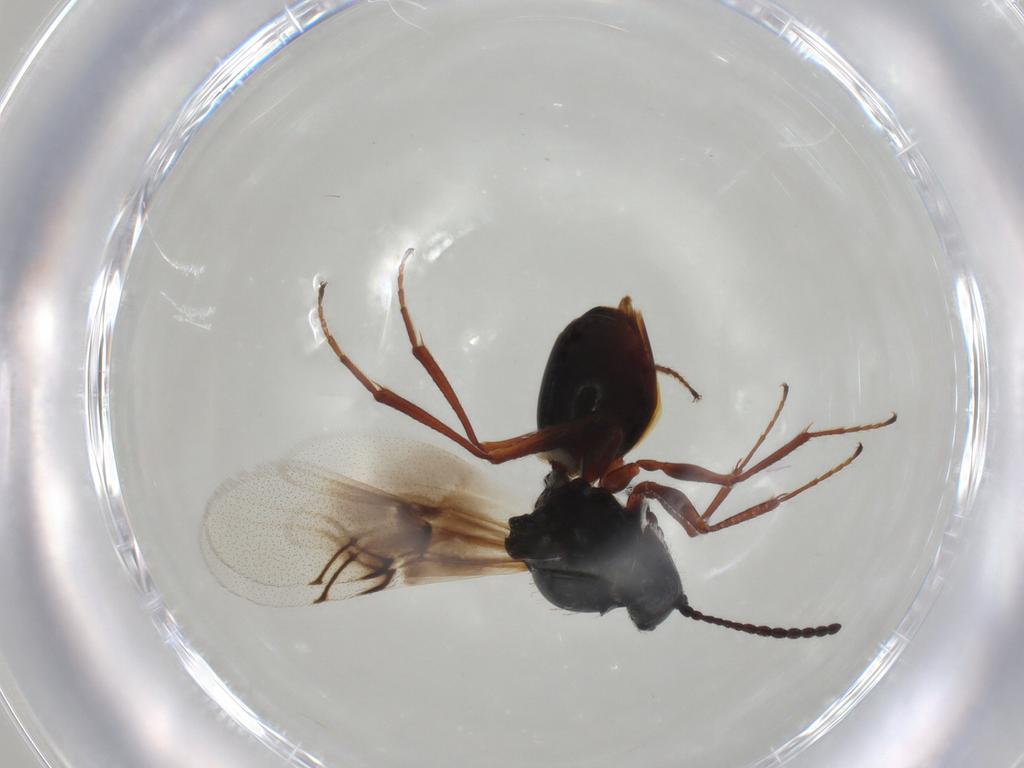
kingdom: Animalia
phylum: Arthropoda
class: Insecta
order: Hymenoptera
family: Figitidae
